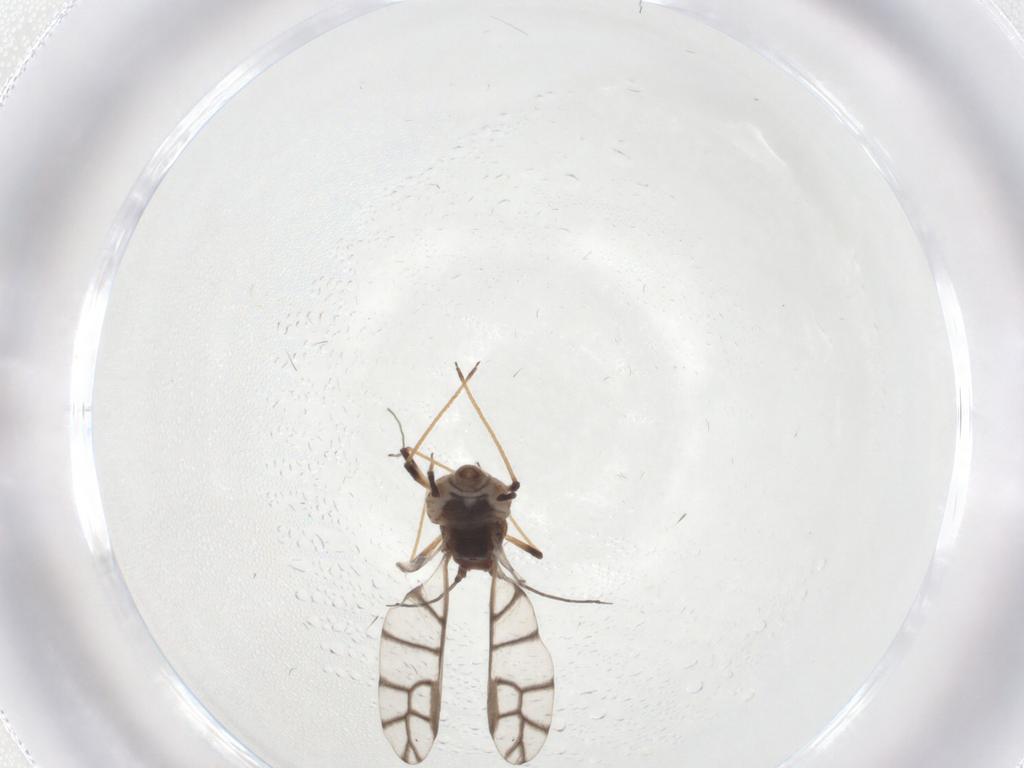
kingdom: Animalia
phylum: Arthropoda
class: Insecta
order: Hemiptera
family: Aphididae
